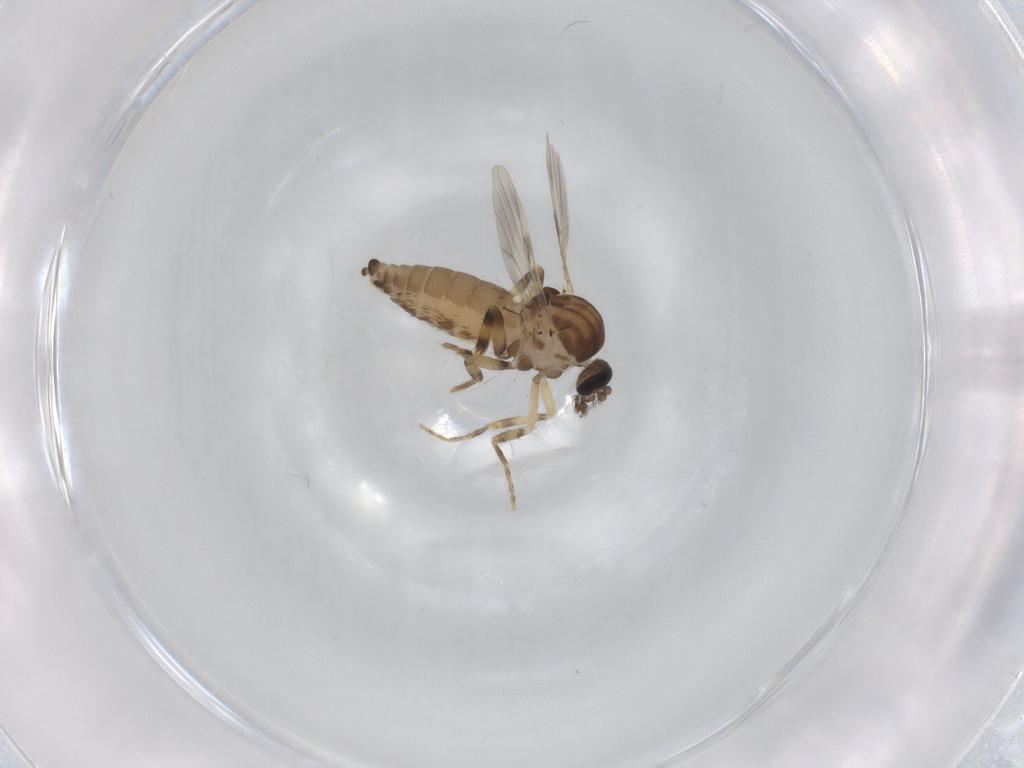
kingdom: Animalia
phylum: Arthropoda
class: Insecta
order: Diptera
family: Ceratopogonidae
